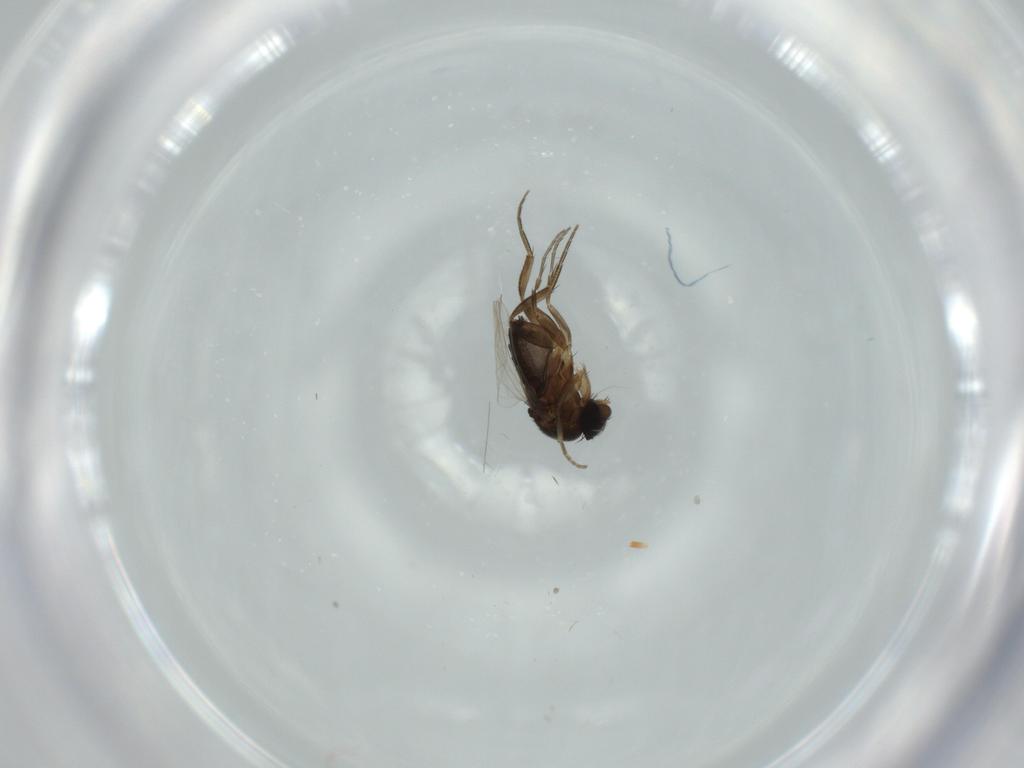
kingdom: Animalia
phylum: Arthropoda
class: Insecta
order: Diptera
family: Phoridae
